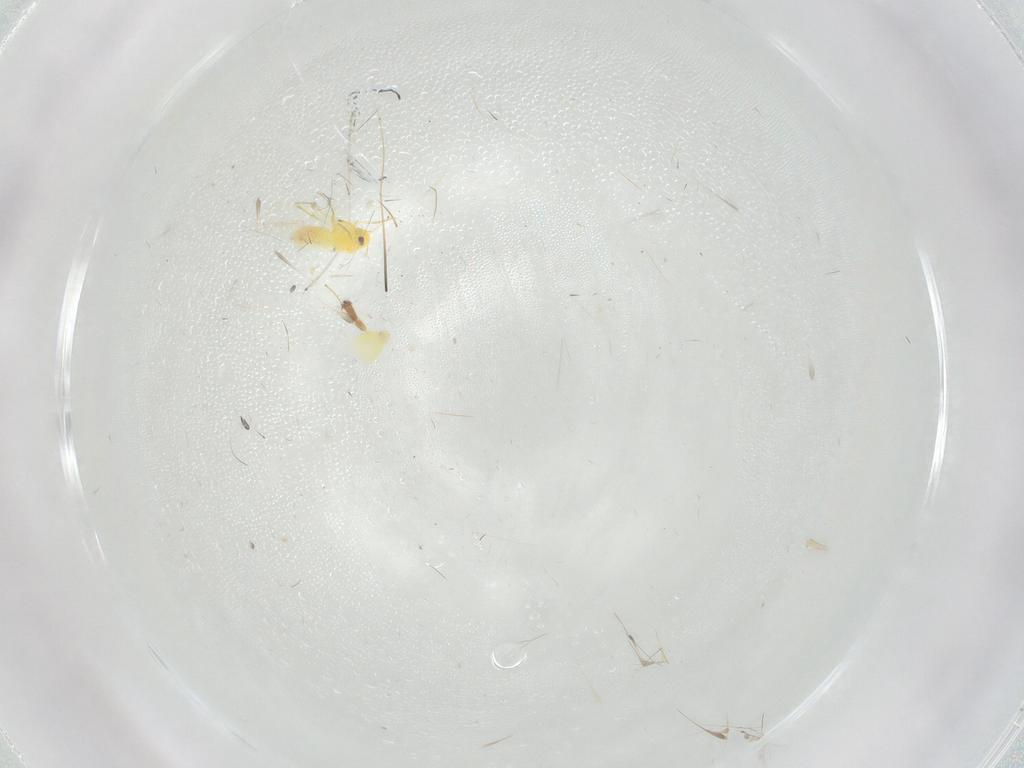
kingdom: Animalia
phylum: Arthropoda
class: Insecta
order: Hemiptera
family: Aleyrodidae
